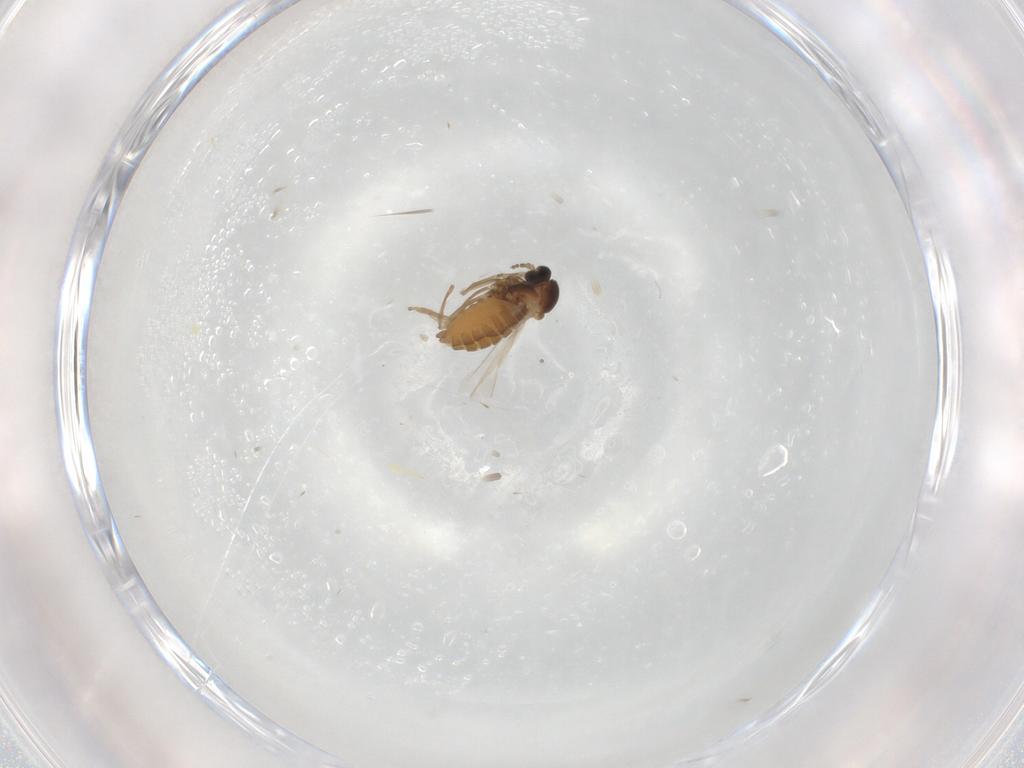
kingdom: Animalia
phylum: Arthropoda
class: Insecta
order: Diptera
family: Cecidomyiidae
